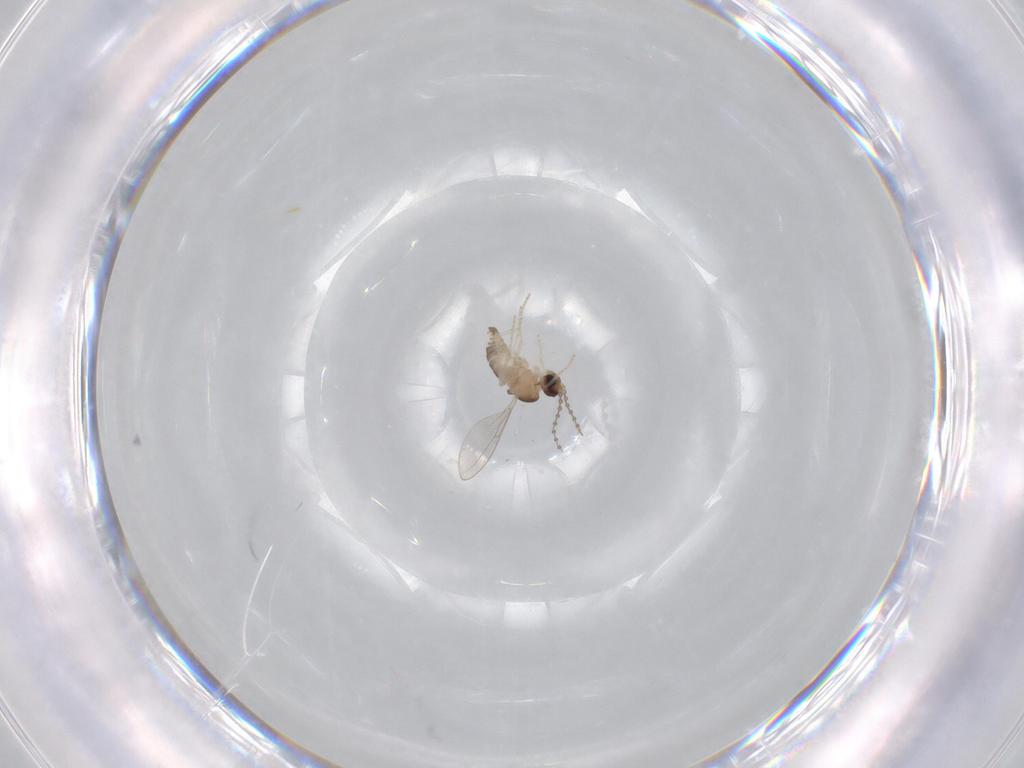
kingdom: Animalia
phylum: Arthropoda
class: Insecta
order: Diptera
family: Cecidomyiidae
